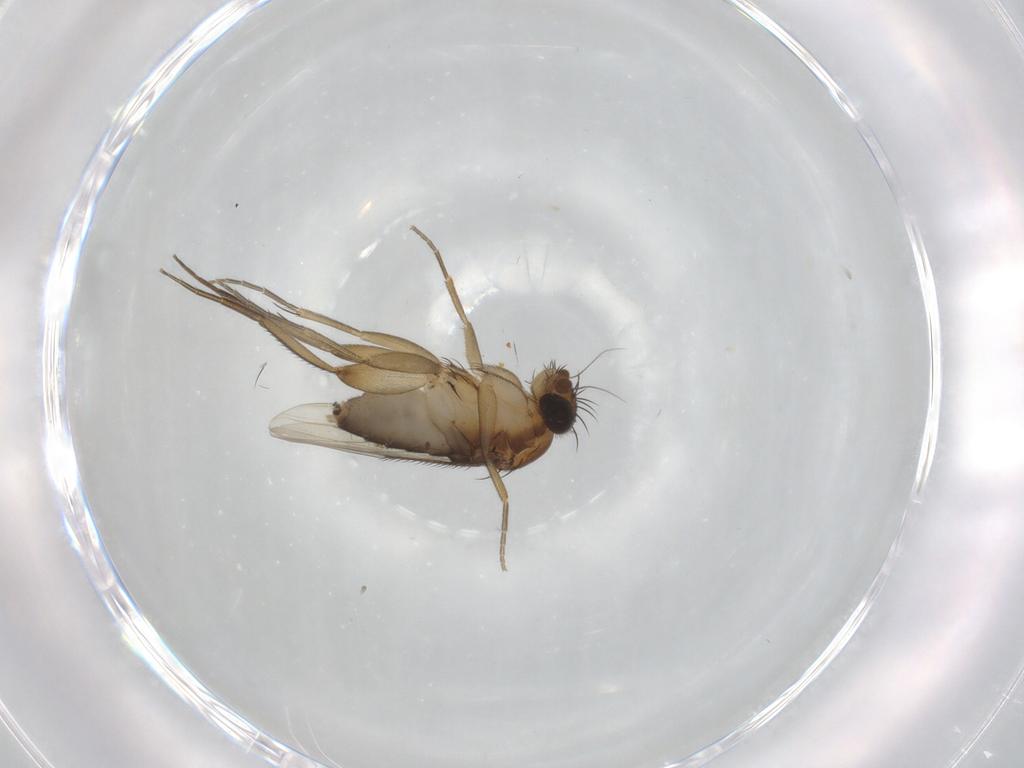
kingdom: Animalia
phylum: Arthropoda
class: Insecta
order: Diptera
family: Phoridae
